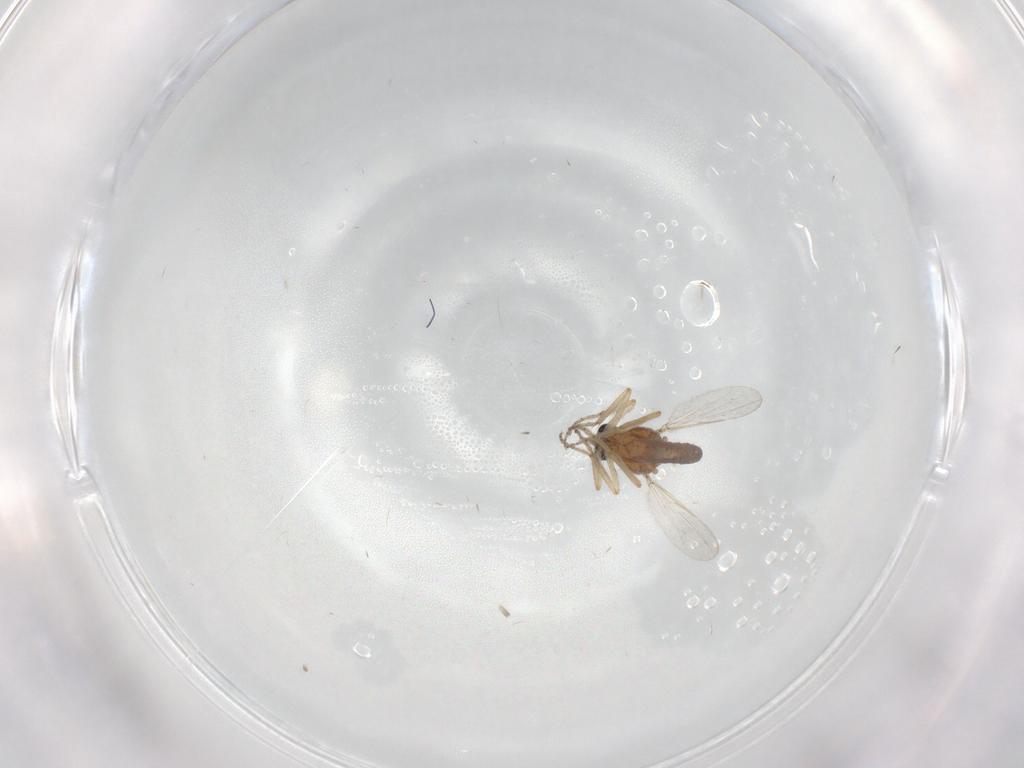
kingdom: Animalia
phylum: Arthropoda
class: Insecta
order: Diptera
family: Ceratopogonidae
